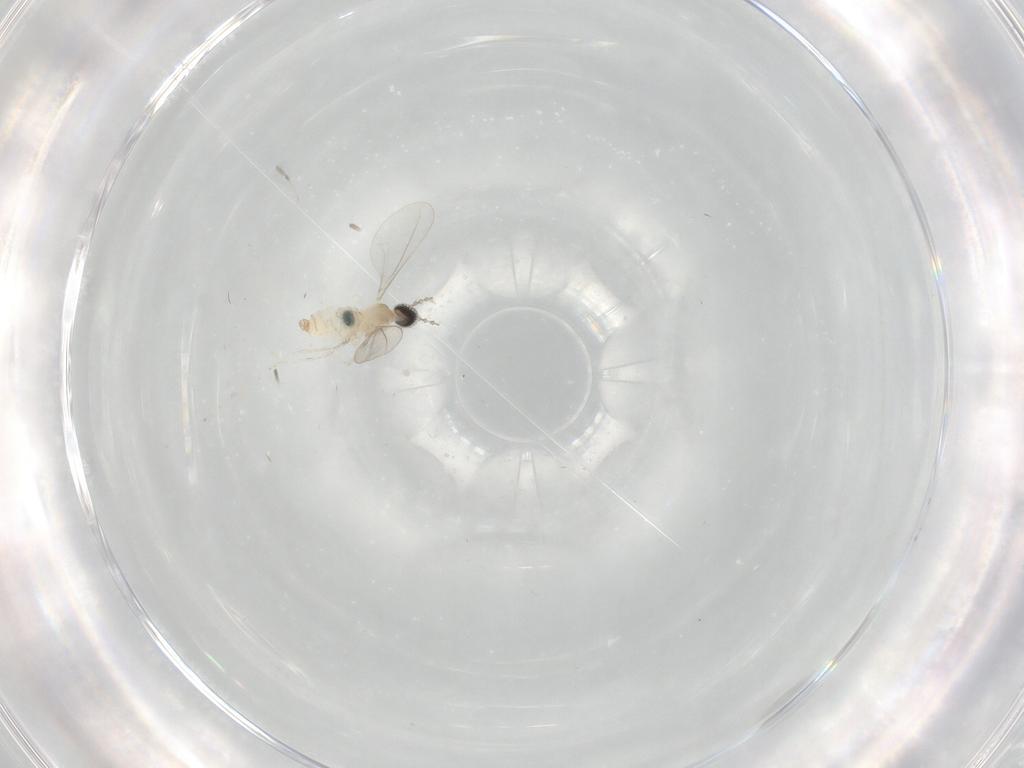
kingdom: Animalia
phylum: Arthropoda
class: Insecta
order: Diptera
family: Cecidomyiidae
